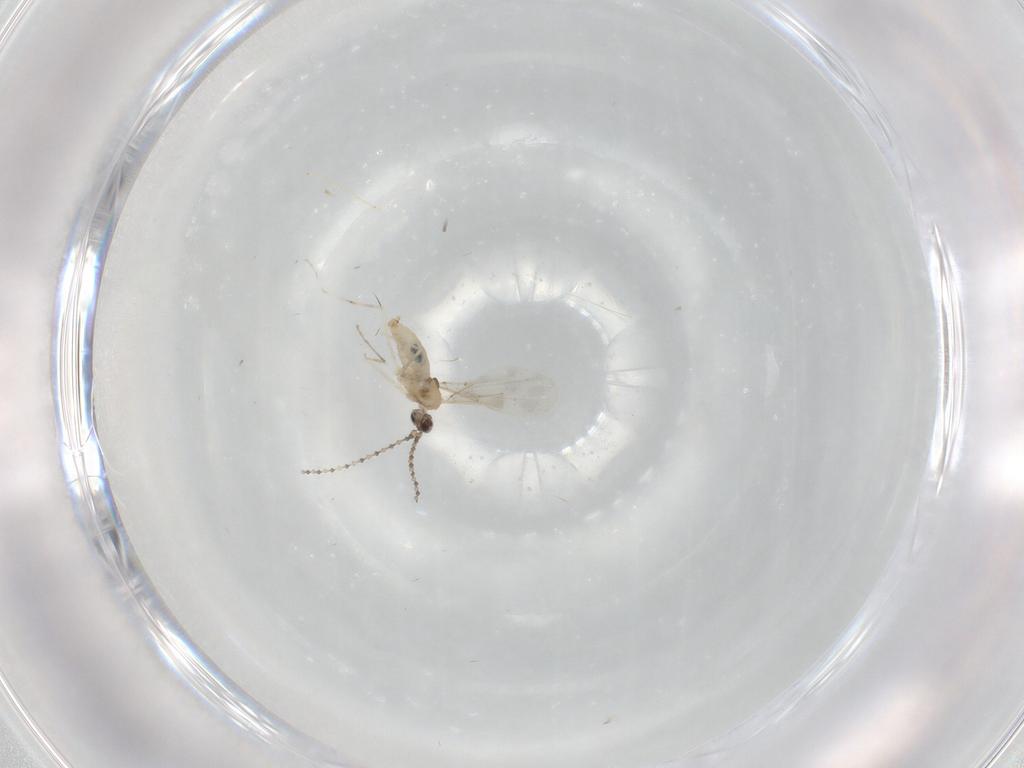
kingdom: Animalia
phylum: Arthropoda
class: Insecta
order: Diptera
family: Cecidomyiidae
